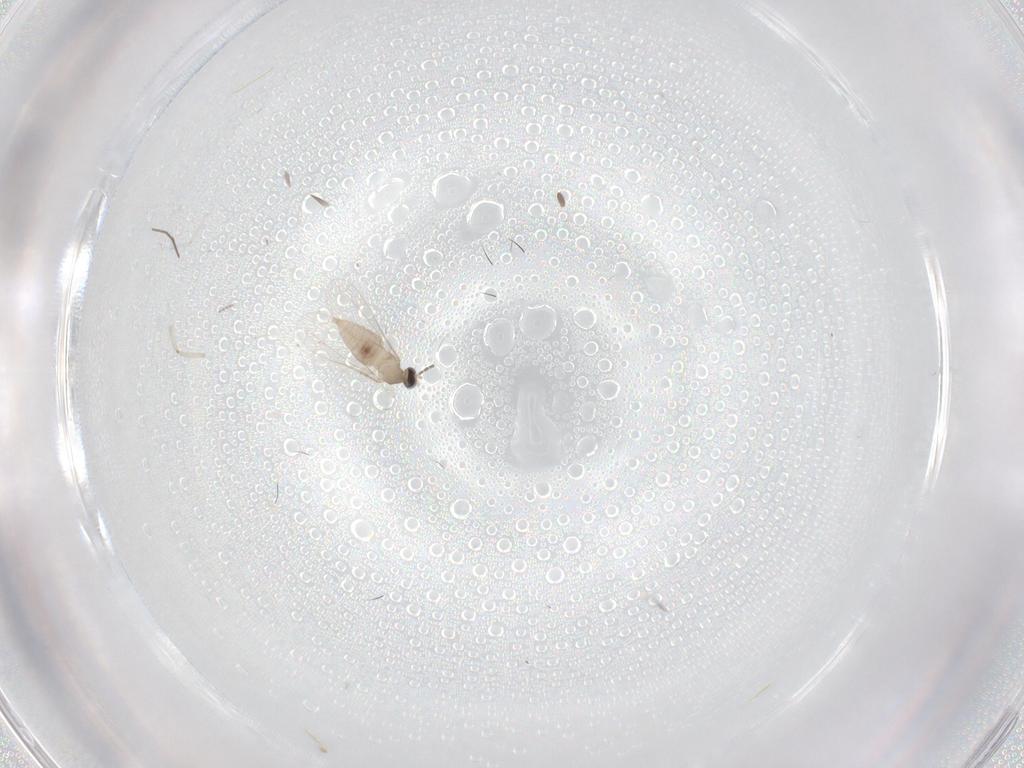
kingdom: Animalia
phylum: Arthropoda
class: Insecta
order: Diptera
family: Cecidomyiidae
